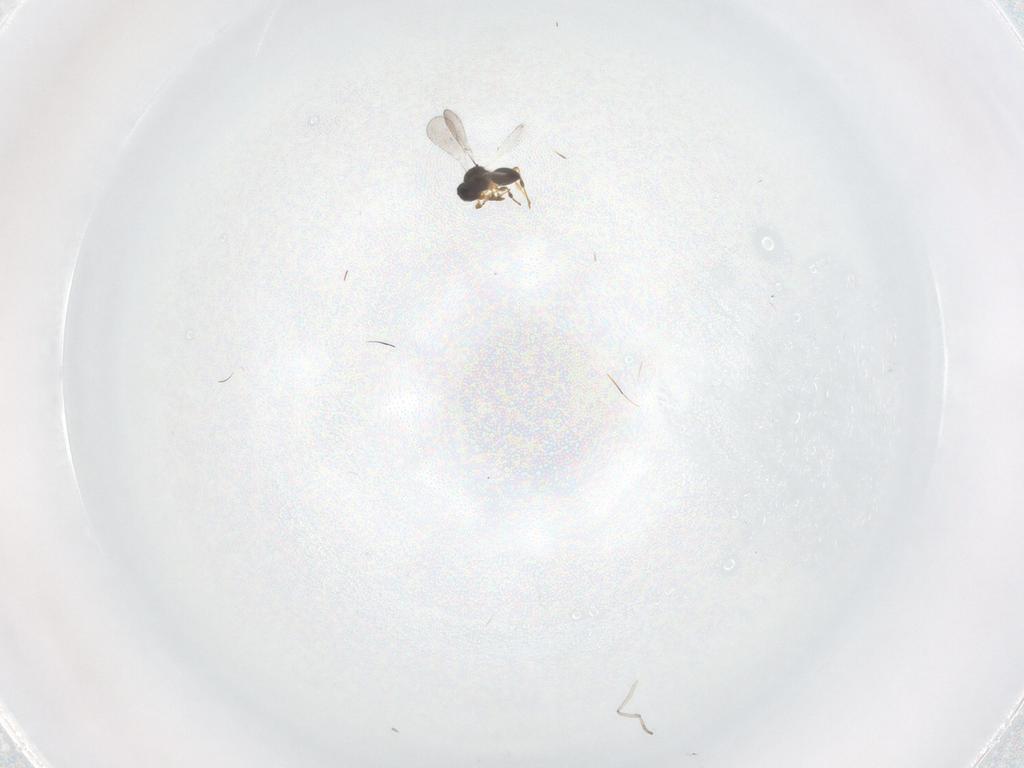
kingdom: Animalia
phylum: Arthropoda
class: Insecta
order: Hymenoptera
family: Platygastridae
